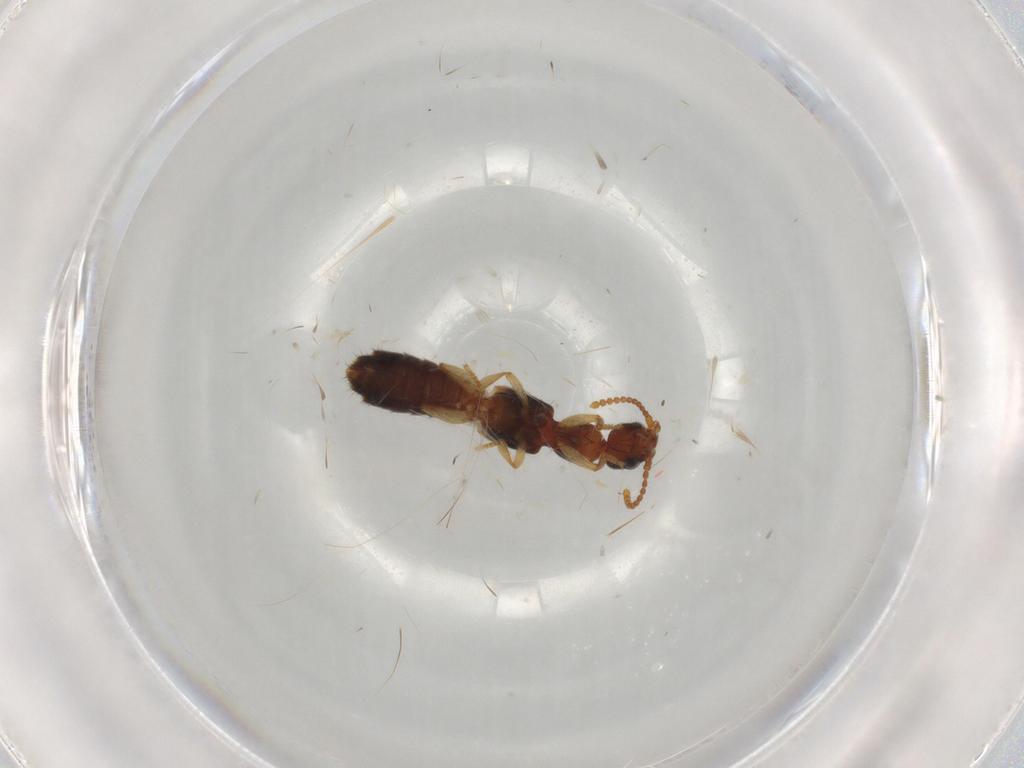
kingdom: Animalia
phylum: Arthropoda
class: Insecta
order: Coleoptera
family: Staphylinidae
